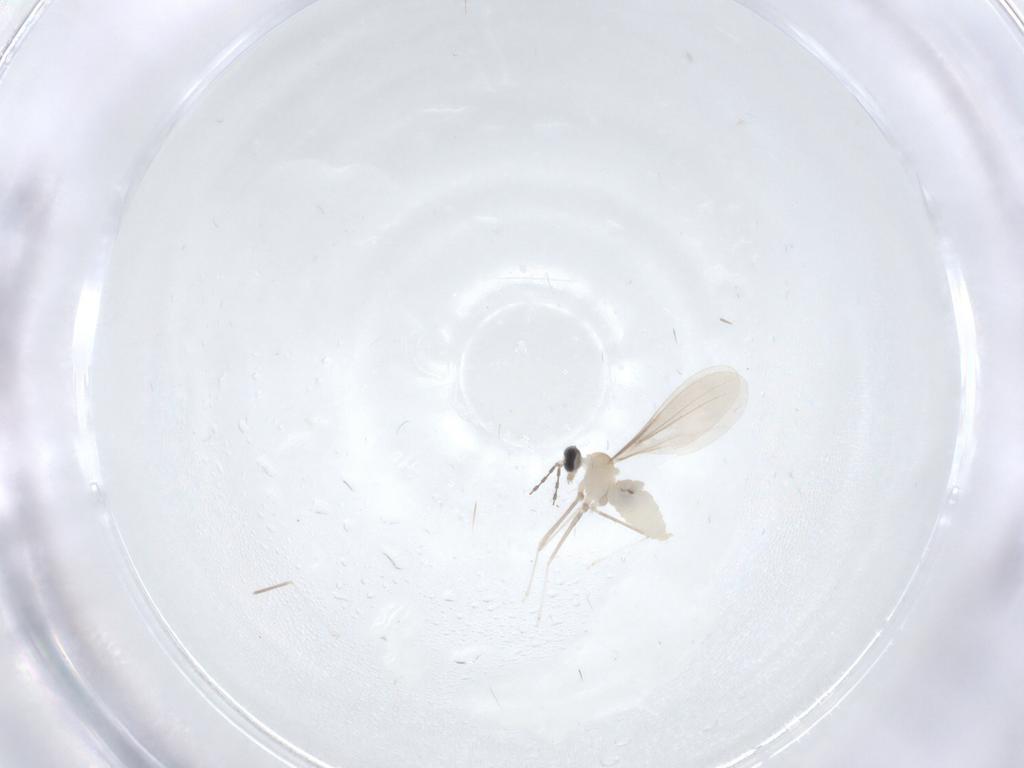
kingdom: Animalia
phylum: Arthropoda
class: Insecta
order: Diptera
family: Cecidomyiidae
